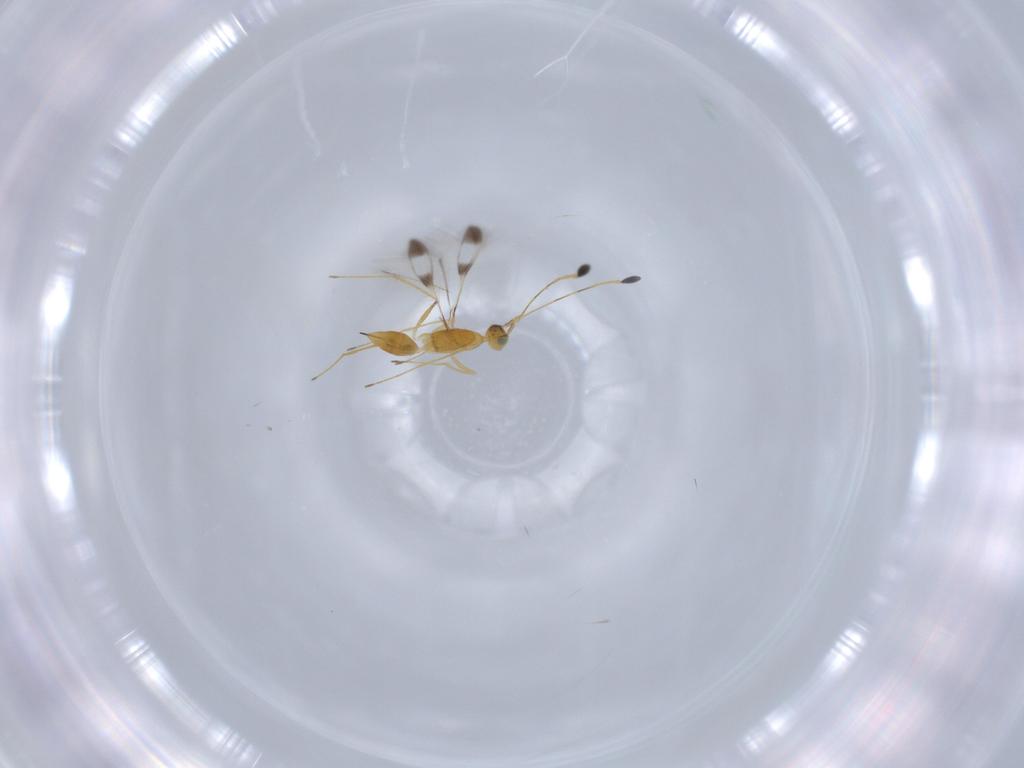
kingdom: Animalia
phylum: Arthropoda
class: Insecta
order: Hymenoptera
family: Mymaridae
